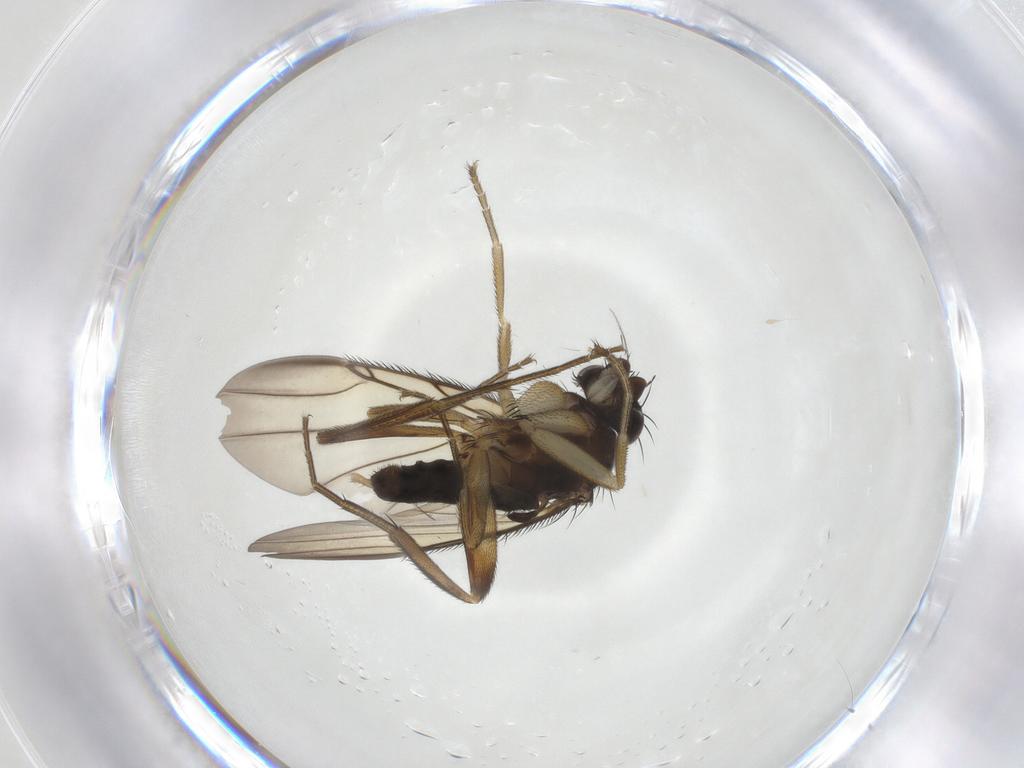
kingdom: Animalia
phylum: Arthropoda
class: Insecta
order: Diptera
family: Phoridae
